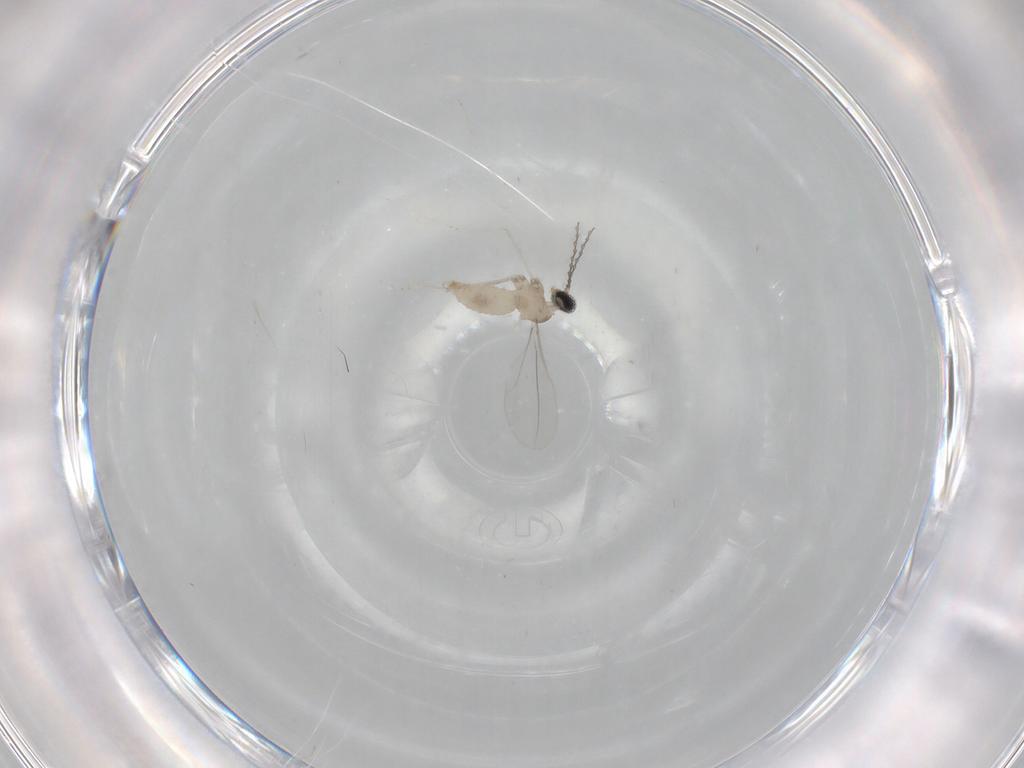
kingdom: Animalia
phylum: Arthropoda
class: Insecta
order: Diptera
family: Cecidomyiidae
